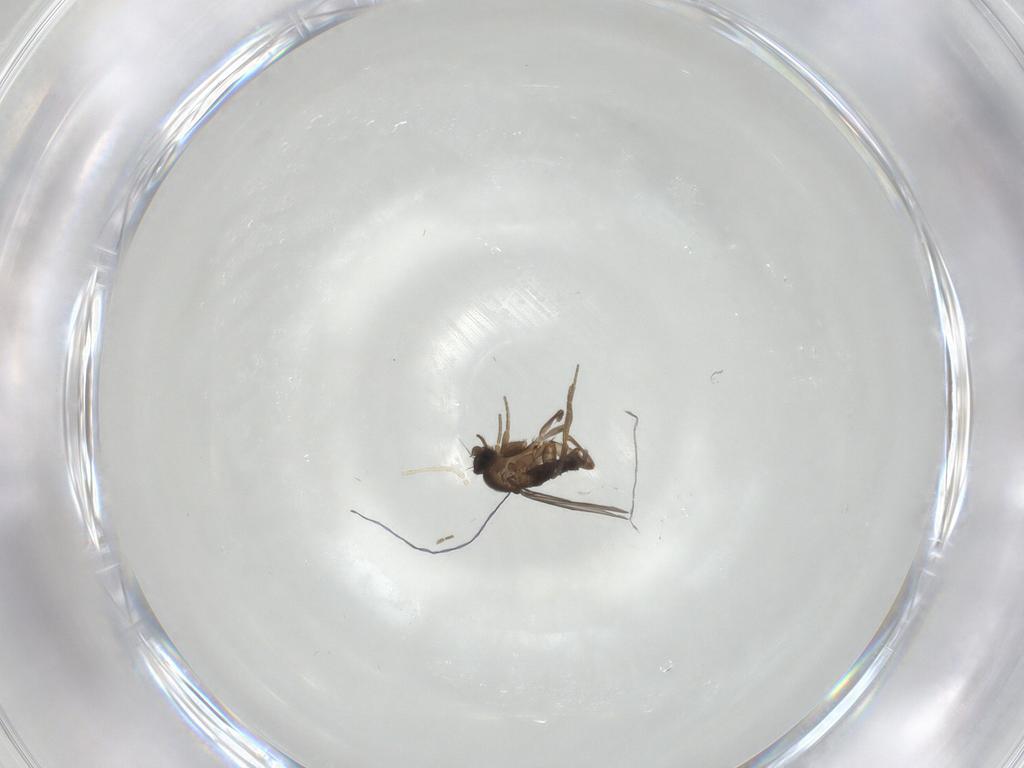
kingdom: Animalia
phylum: Arthropoda
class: Insecta
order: Diptera
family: Phoridae
